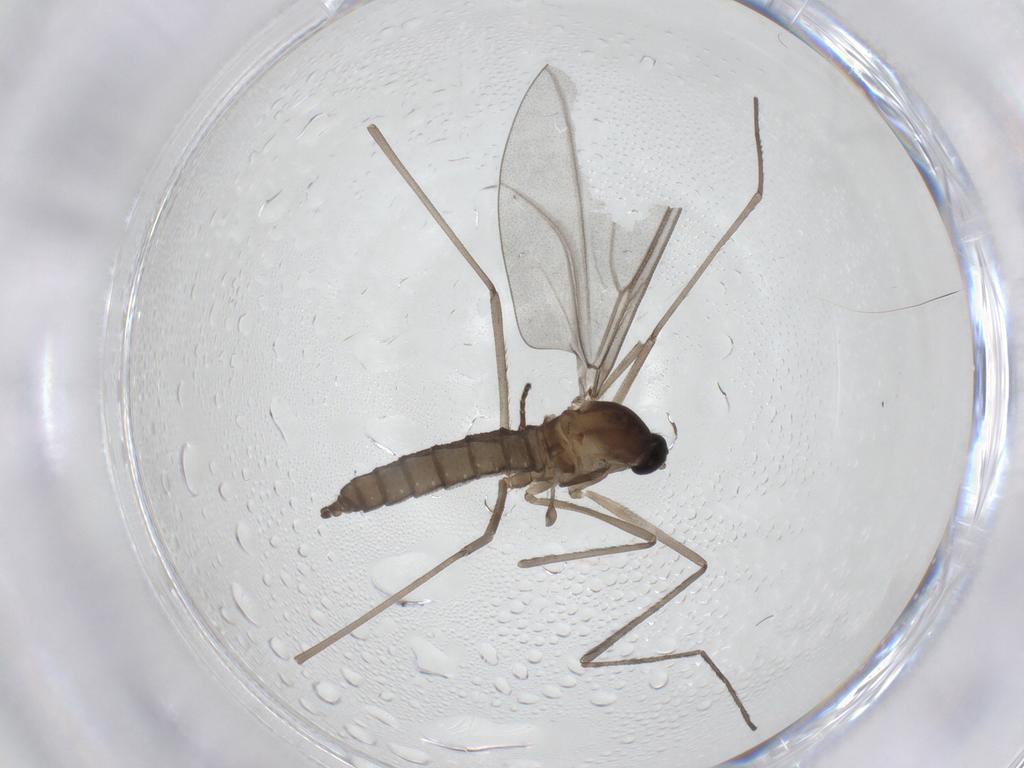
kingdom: Animalia
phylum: Arthropoda
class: Insecta
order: Diptera
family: Cecidomyiidae
